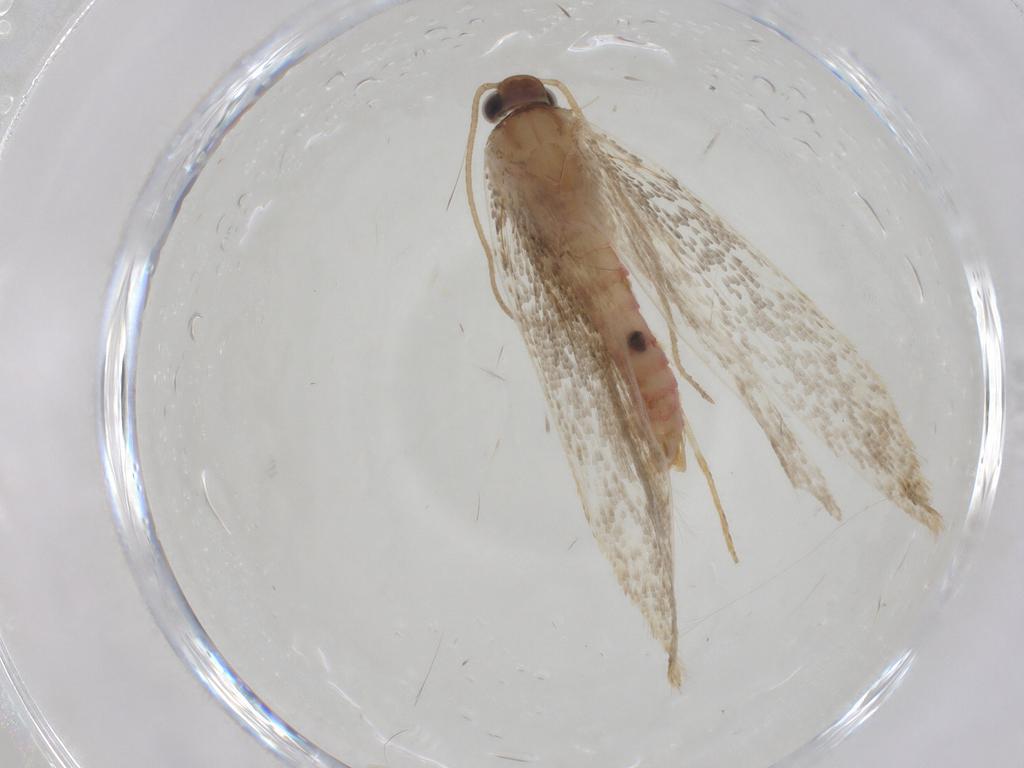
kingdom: Animalia
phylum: Arthropoda
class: Insecta
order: Lepidoptera
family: Crambidae
